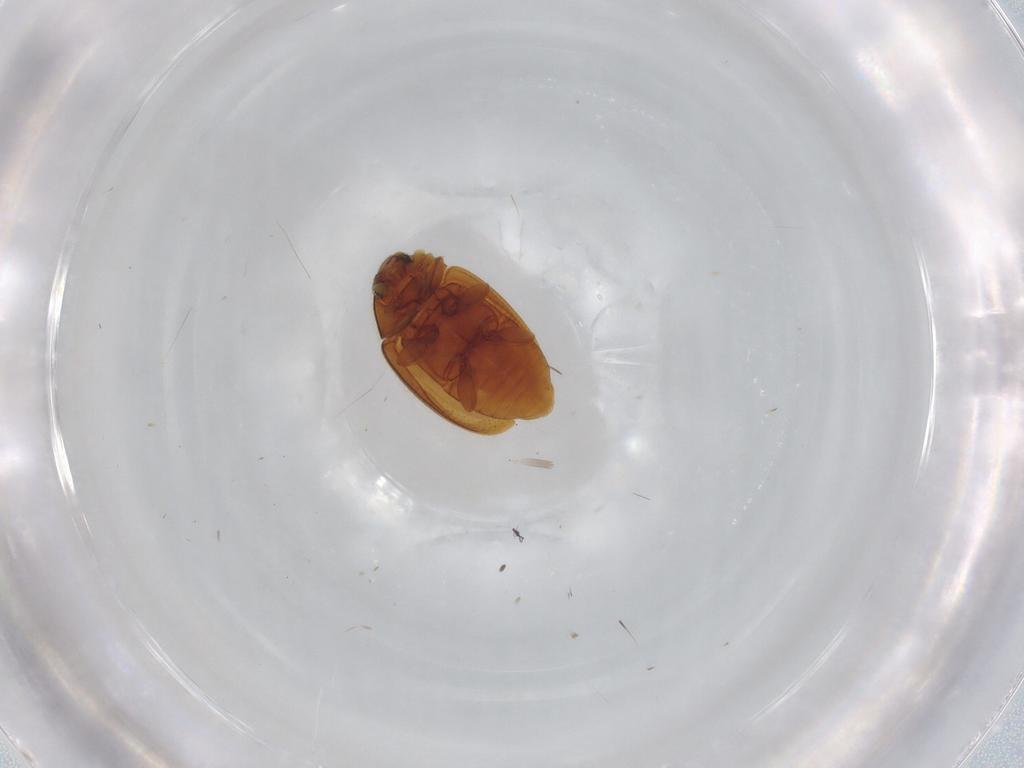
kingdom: Animalia
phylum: Arthropoda
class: Insecta
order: Coleoptera
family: Coccinellidae
